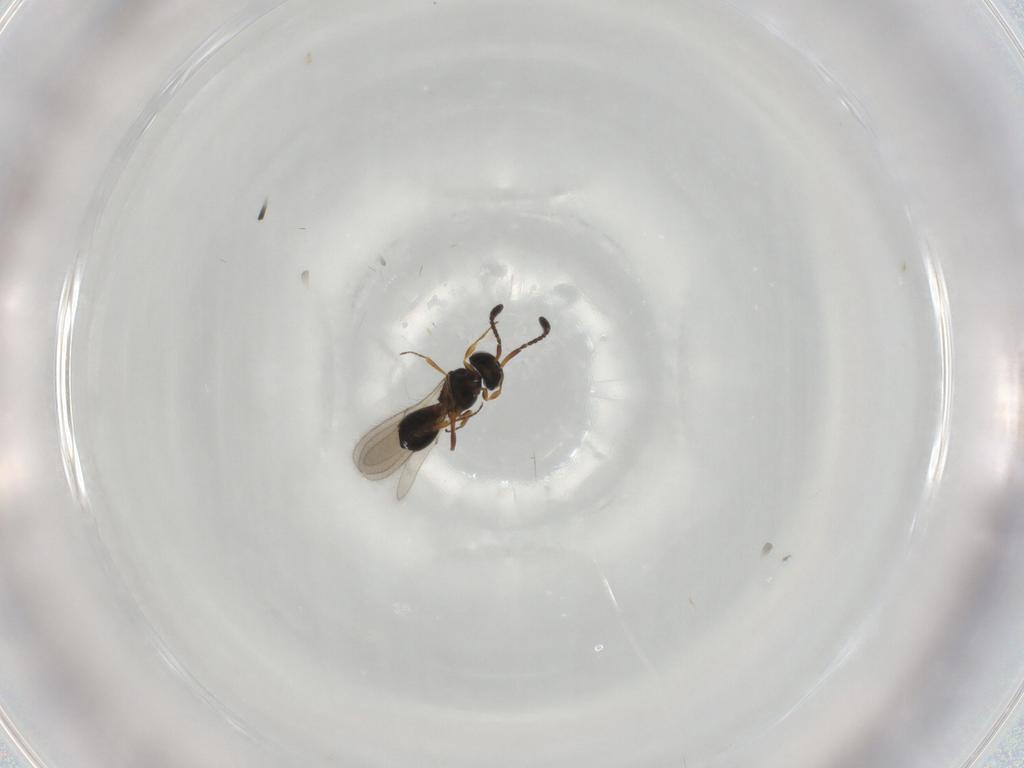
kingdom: Animalia
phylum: Arthropoda
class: Insecta
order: Hymenoptera
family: Scelionidae
